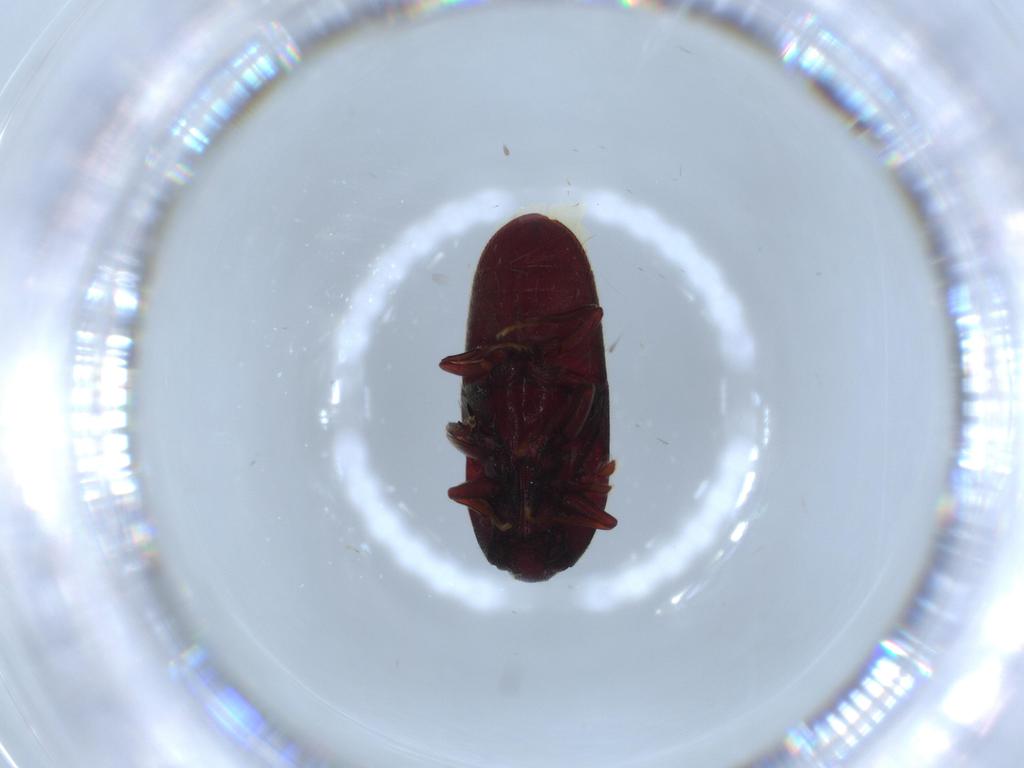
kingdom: Animalia
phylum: Arthropoda
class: Insecta
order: Coleoptera
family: Throscidae
